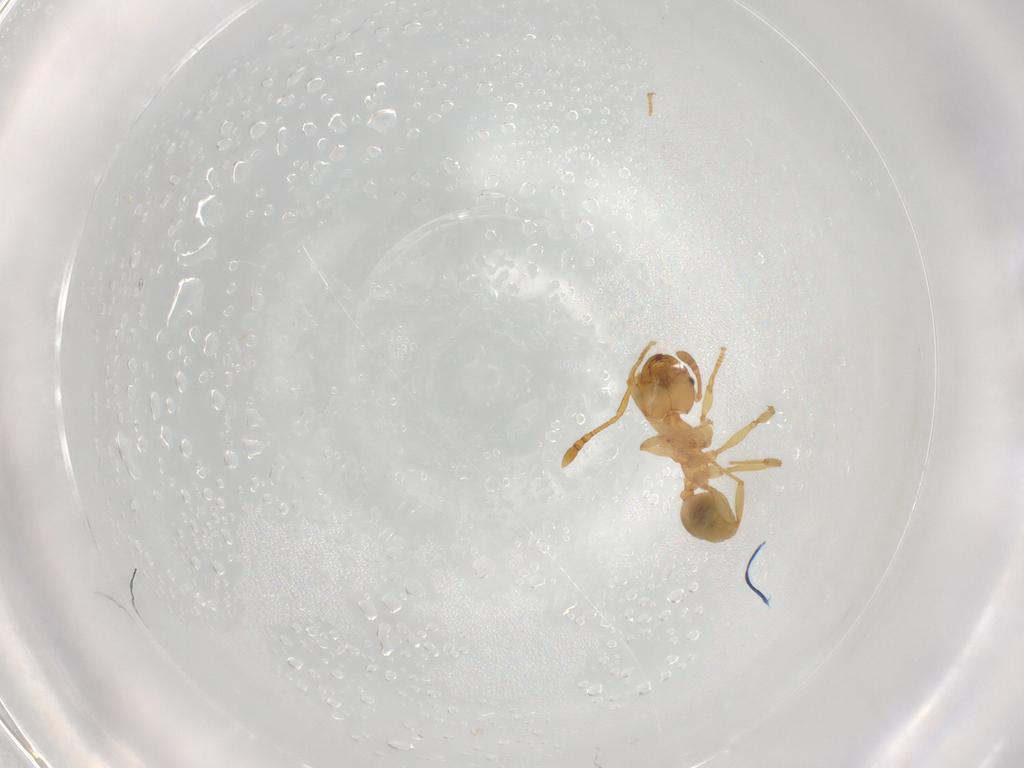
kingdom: Animalia
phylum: Arthropoda
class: Insecta
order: Hymenoptera
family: Formicidae
